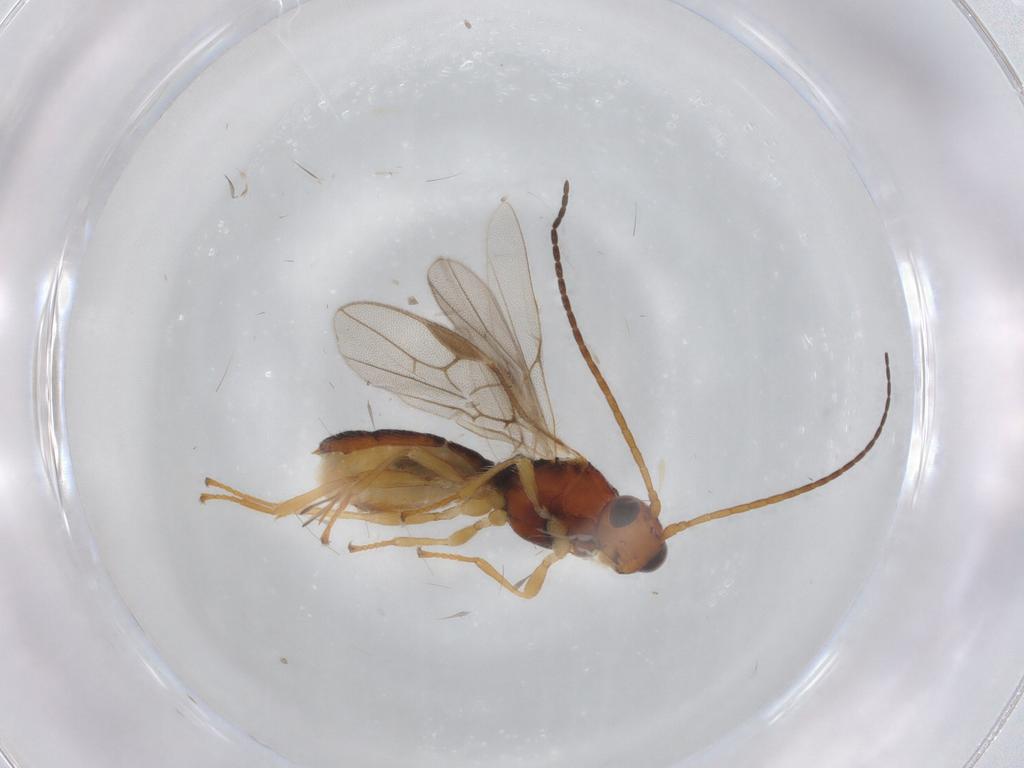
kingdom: Animalia
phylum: Arthropoda
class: Insecta
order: Hymenoptera
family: Braconidae
